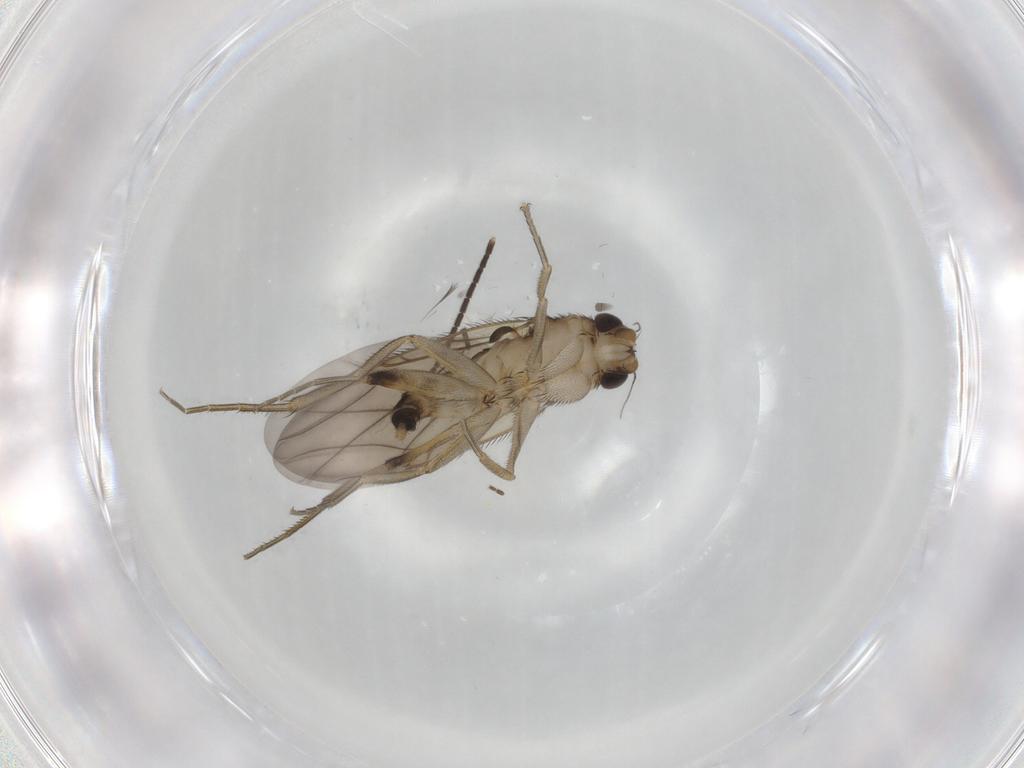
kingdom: Animalia
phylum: Arthropoda
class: Insecta
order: Diptera
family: Phoridae
